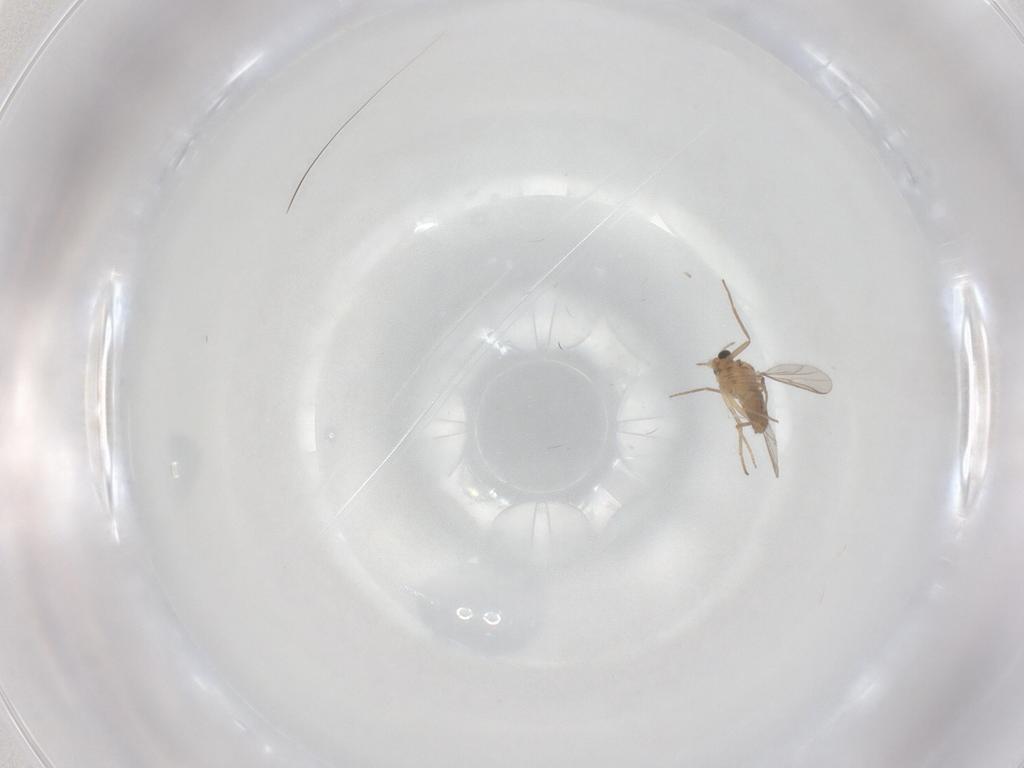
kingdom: Animalia
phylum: Arthropoda
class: Insecta
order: Diptera
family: Chironomidae
